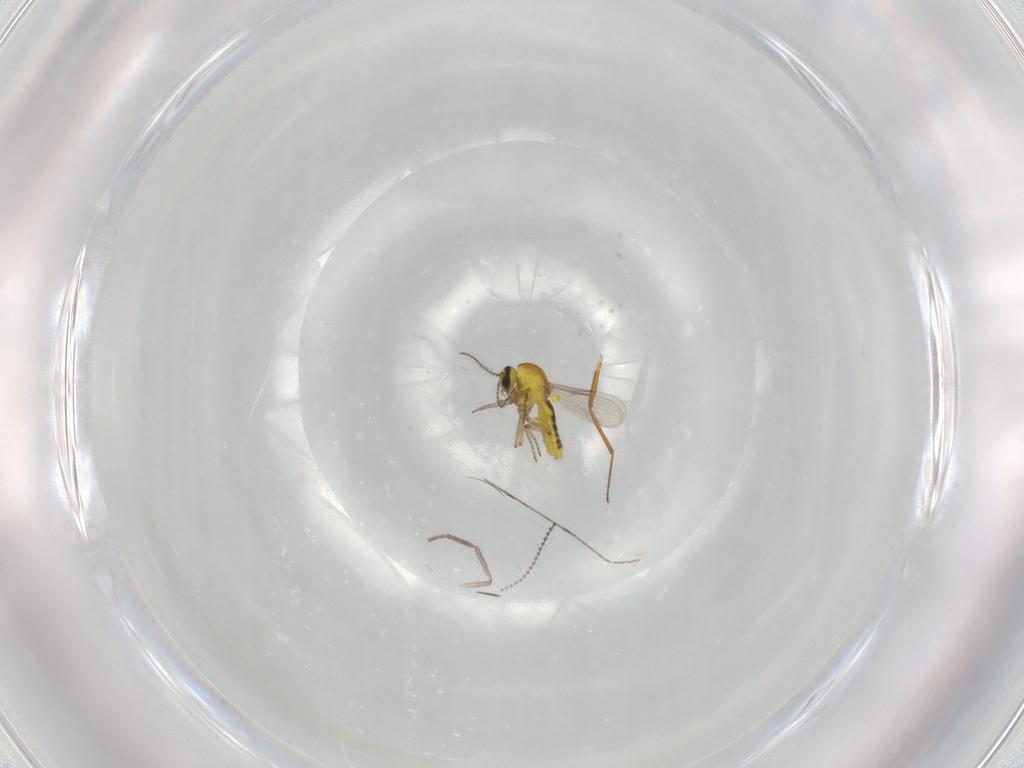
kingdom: Animalia
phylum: Arthropoda
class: Insecta
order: Diptera
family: Cecidomyiidae
